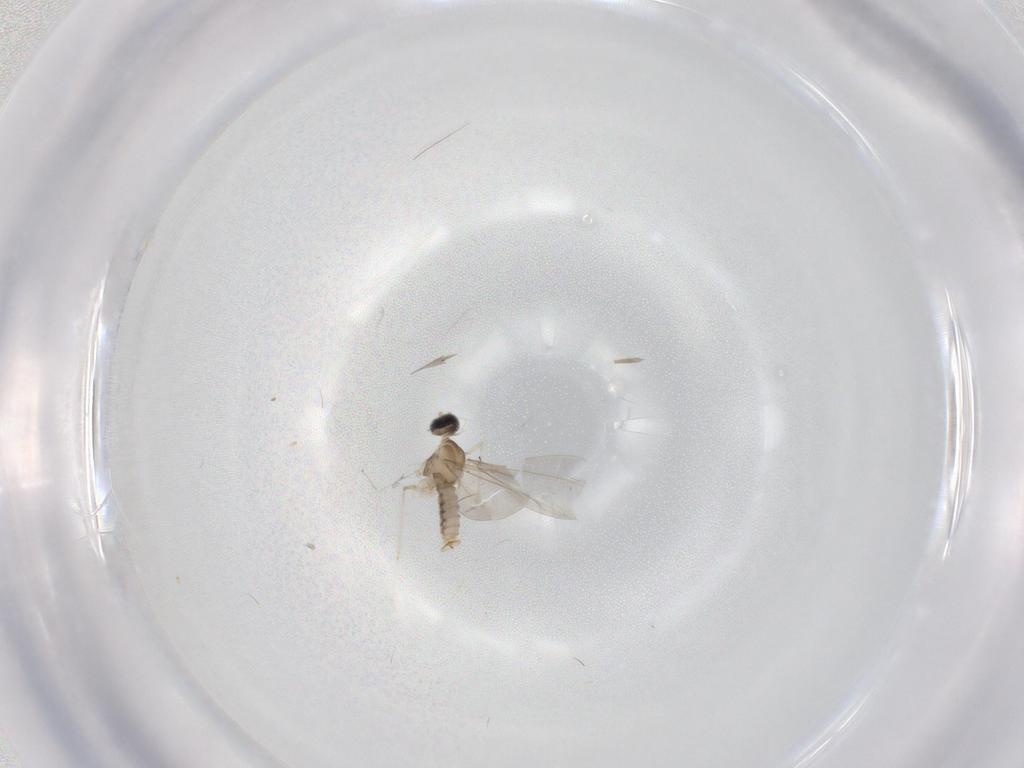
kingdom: Animalia
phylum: Arthropoda
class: Insecta
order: Diptera
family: Cecidomyiidae
